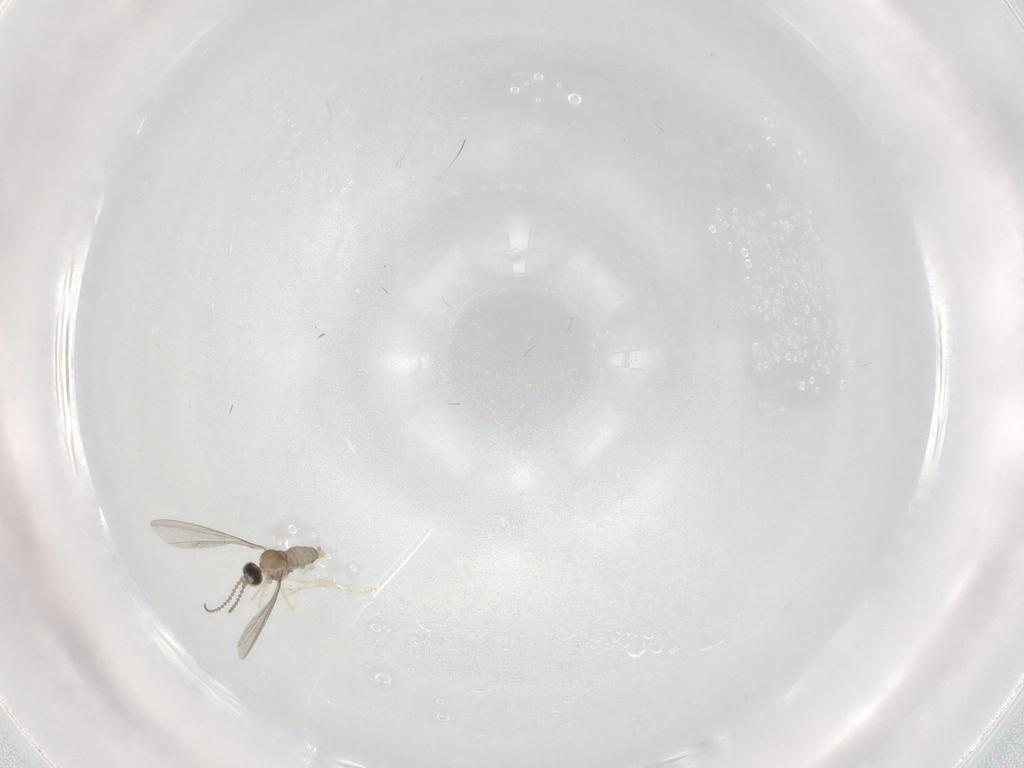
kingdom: Animalia
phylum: Arthropoda
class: Insecta
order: Diptera
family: Cecidomyiidae
